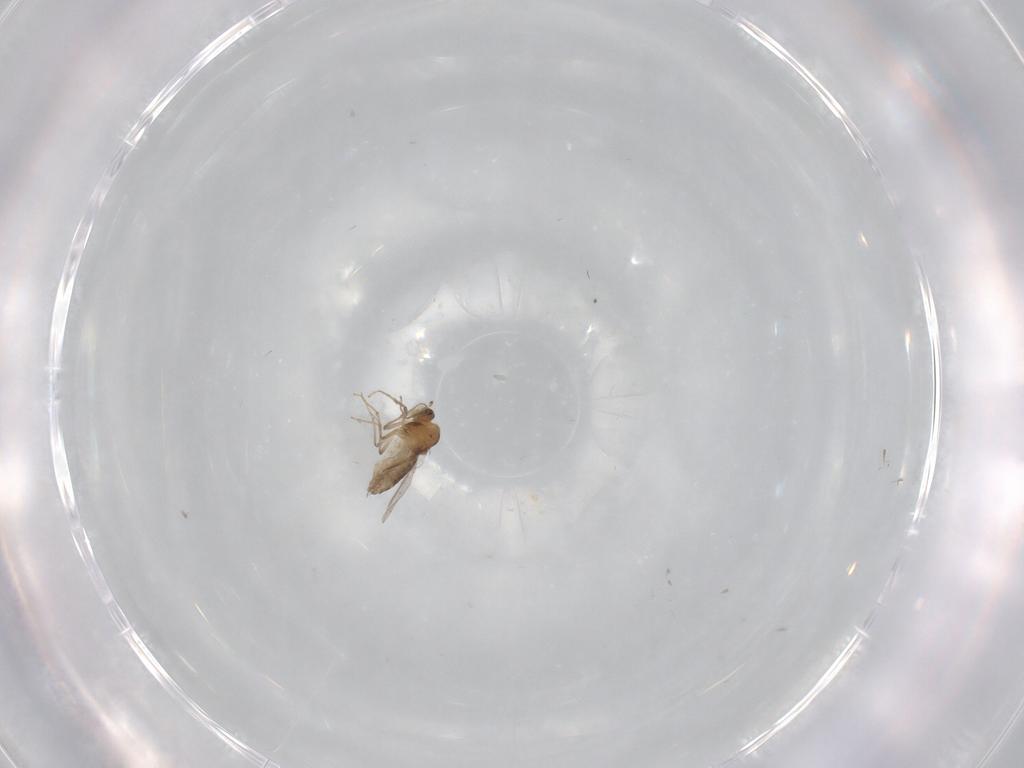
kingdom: Animalia
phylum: Arthropoda
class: Insecta
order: Diptera
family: Chironomidae
